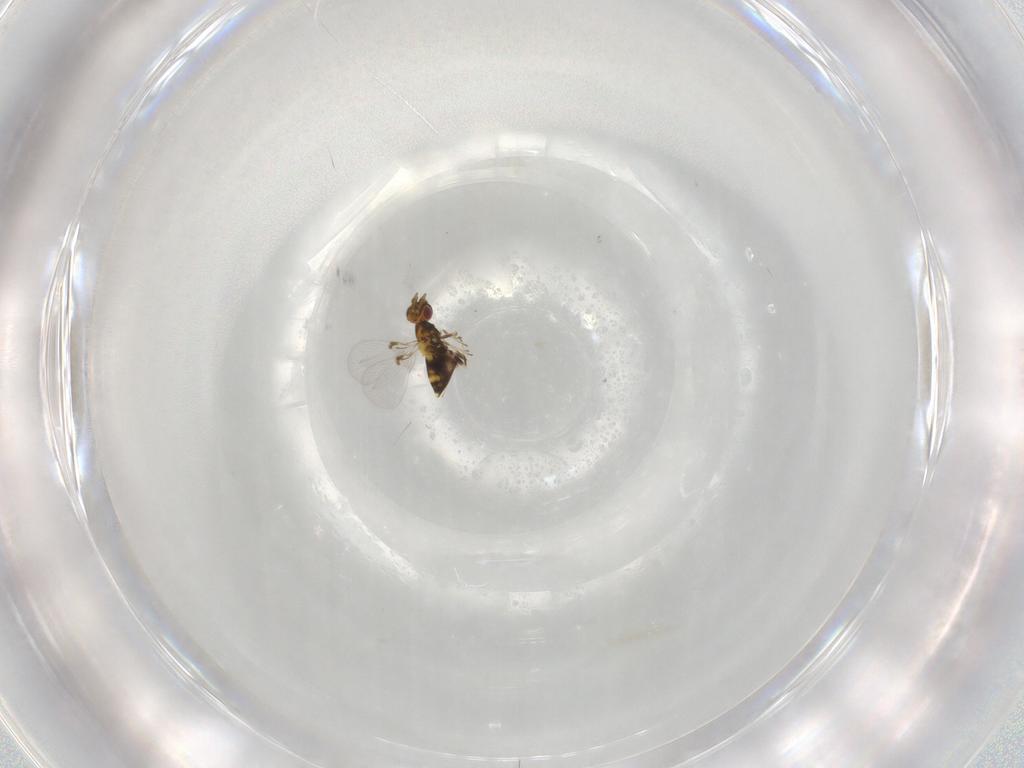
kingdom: Animalia
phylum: Arthropoda
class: Insecta
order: Hymenoptera
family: Trichogrammatidae
